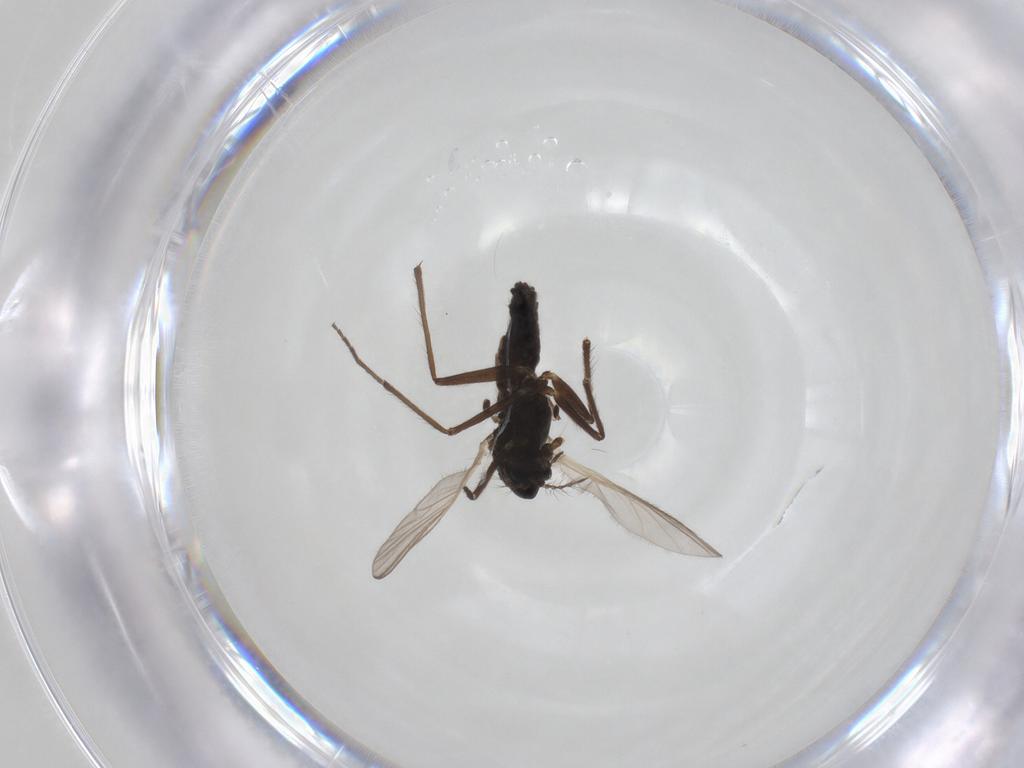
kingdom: Animalia
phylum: Arthropoda
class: Insecta
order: Diptera
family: Chironomidae
